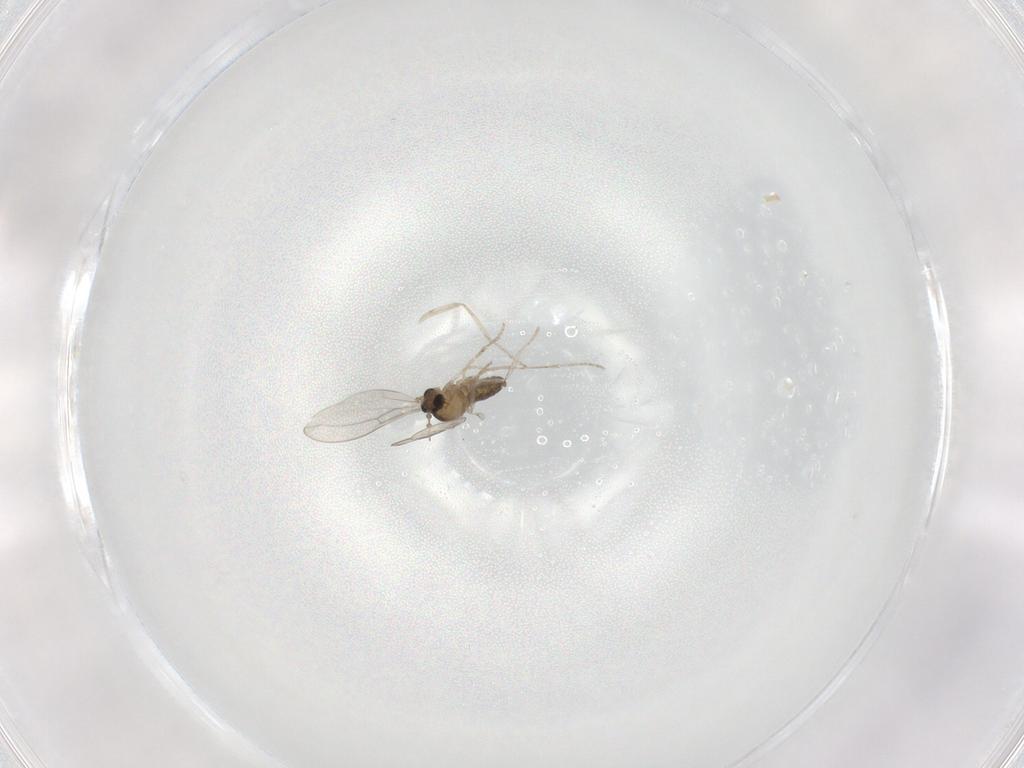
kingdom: Animalia
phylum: Arthropoda
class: Insecta
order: Diptera
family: Cecidomyiidae
